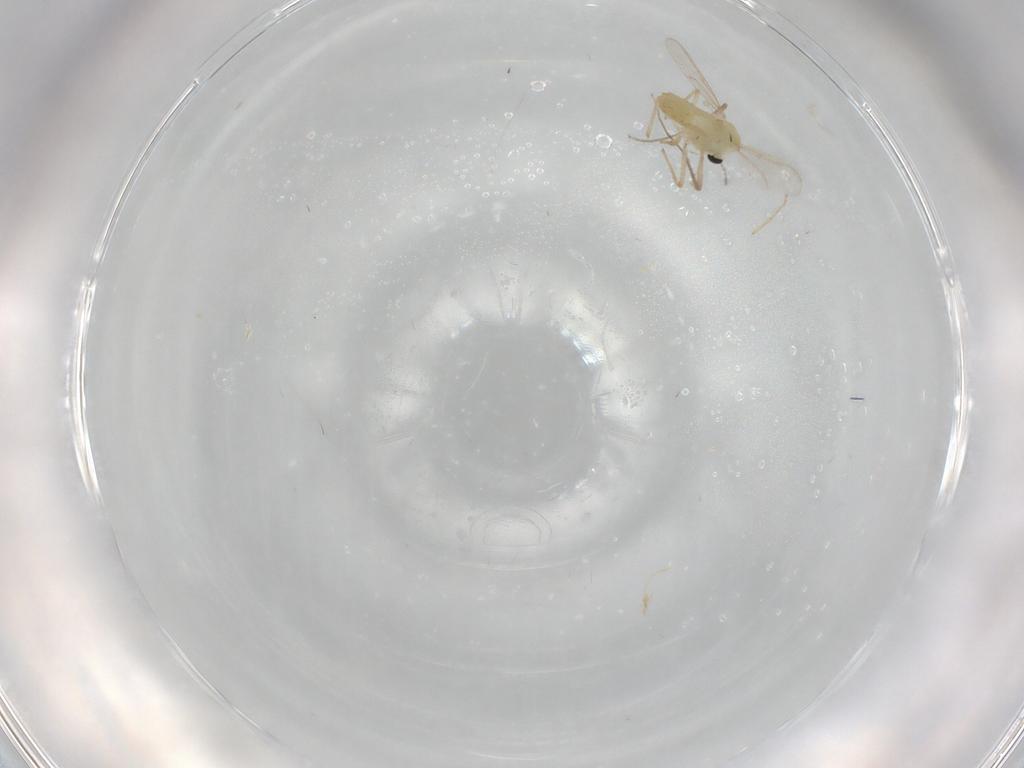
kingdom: Animalia
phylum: Arthropoda
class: Insecta
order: Diptera
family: Chironomidae
